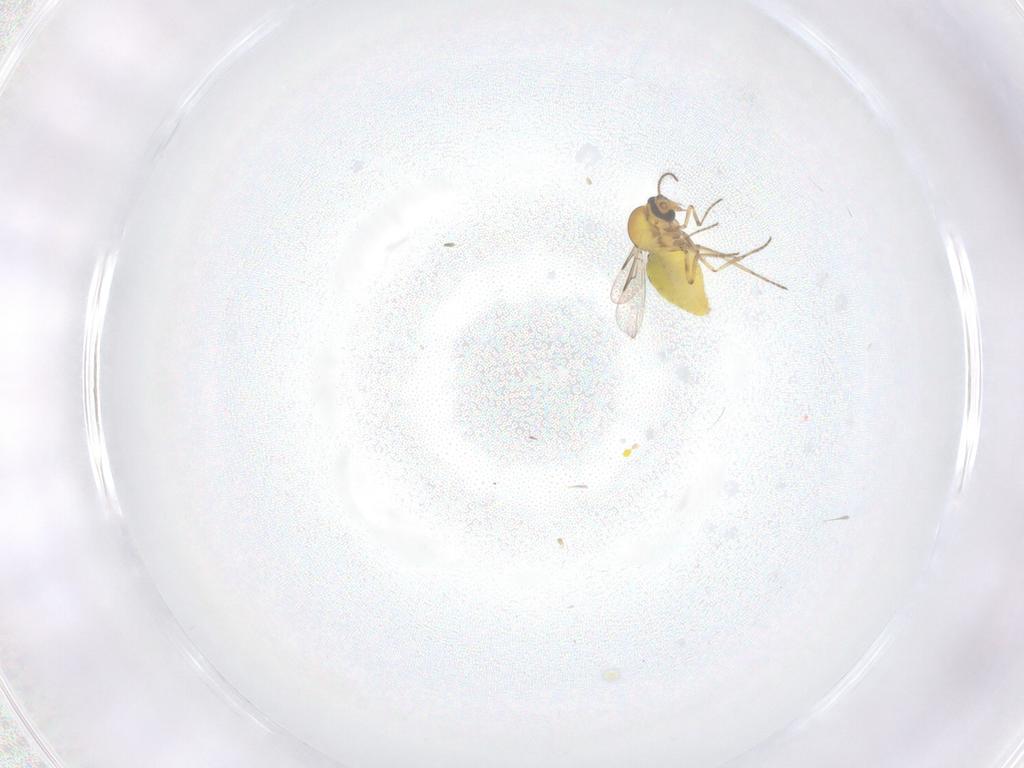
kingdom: Animalia
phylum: Arthropoda
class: Insecta
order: Diptera
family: Ceratopogonidae
